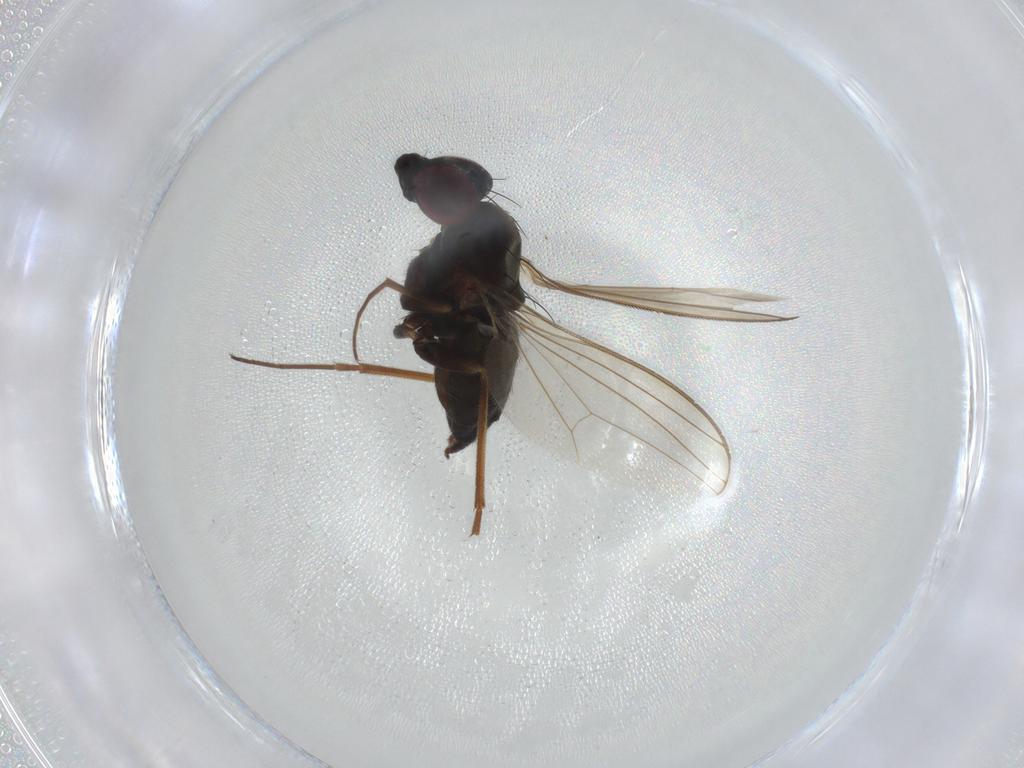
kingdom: Animalia
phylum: Arthropoda
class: Insecta
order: Diptera
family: Dolichopodidae
